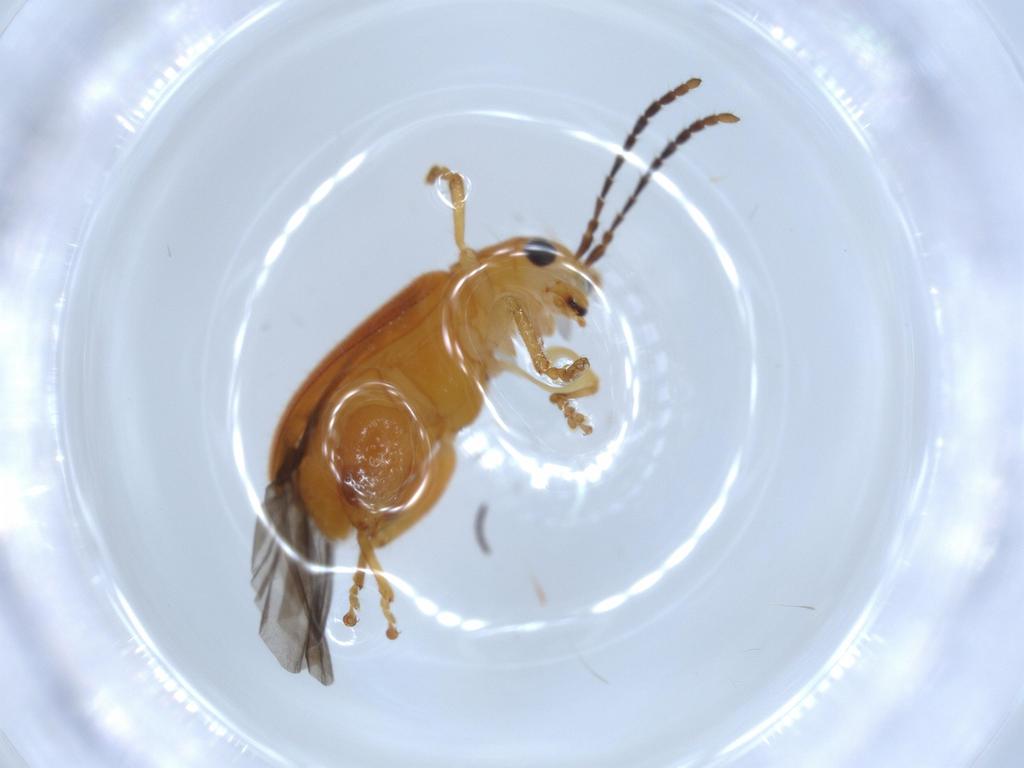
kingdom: Animalia
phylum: Arthropoda
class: Insecta
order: Coleoptera
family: Chrysomelidae
